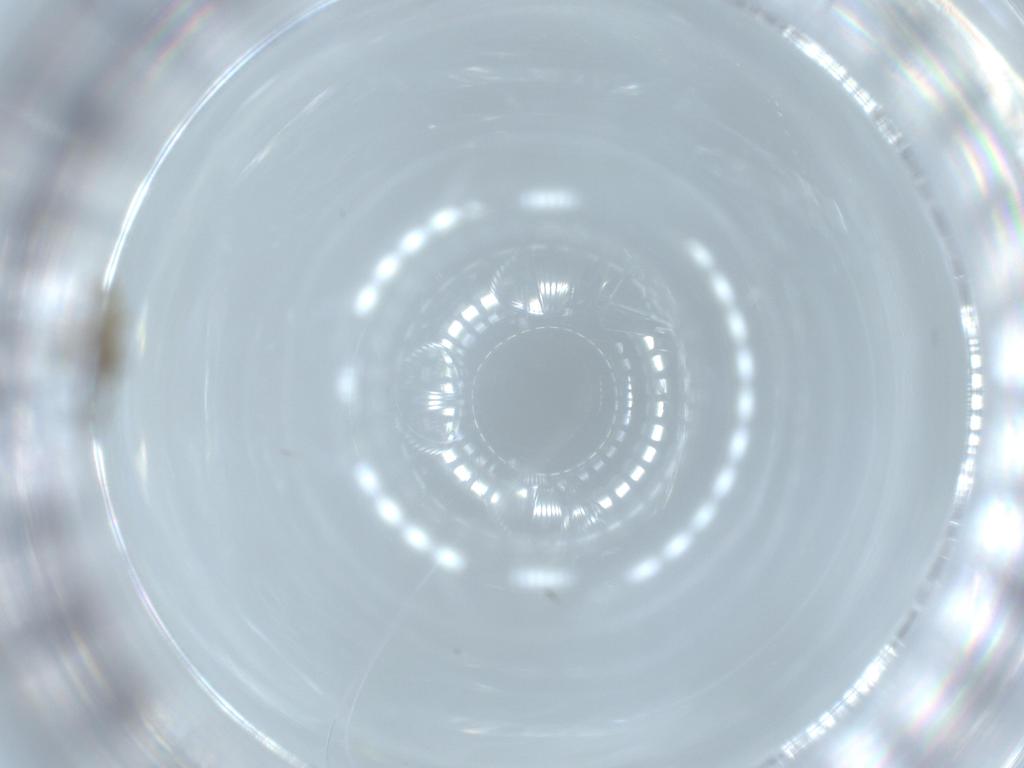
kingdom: Animalia
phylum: Arthropoda
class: Insecta
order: Diptera
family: Cecidomyiidae
